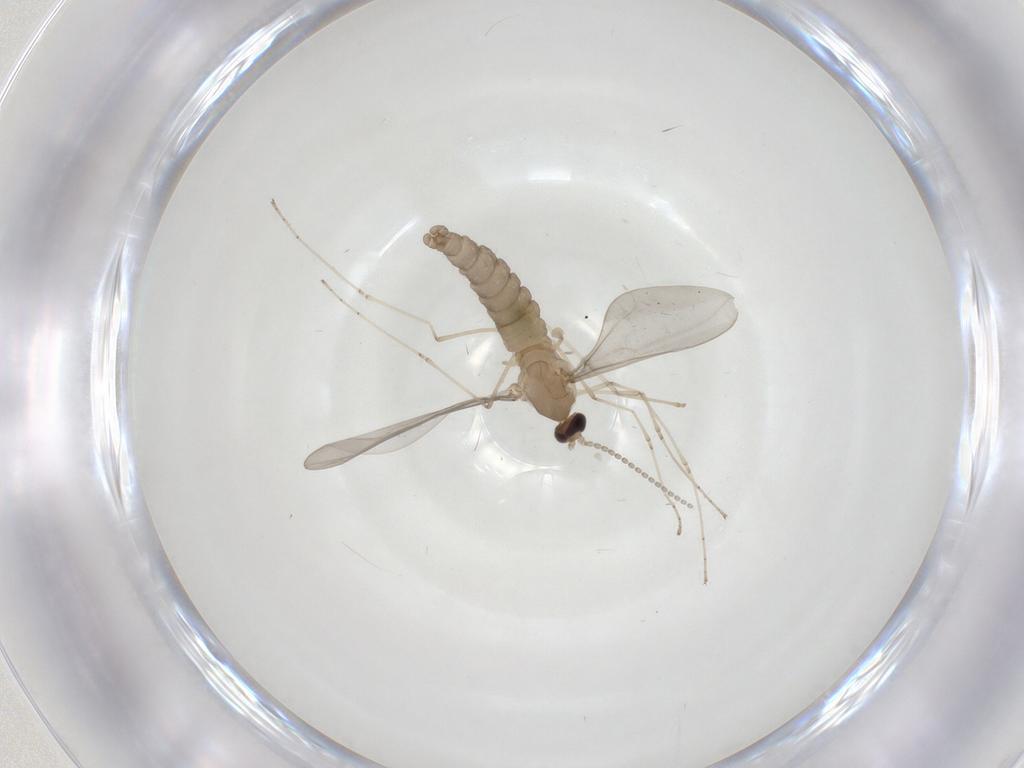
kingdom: Animalia
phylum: Arthropoda
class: Insecta
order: Diptera
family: Cecidomyiidae
